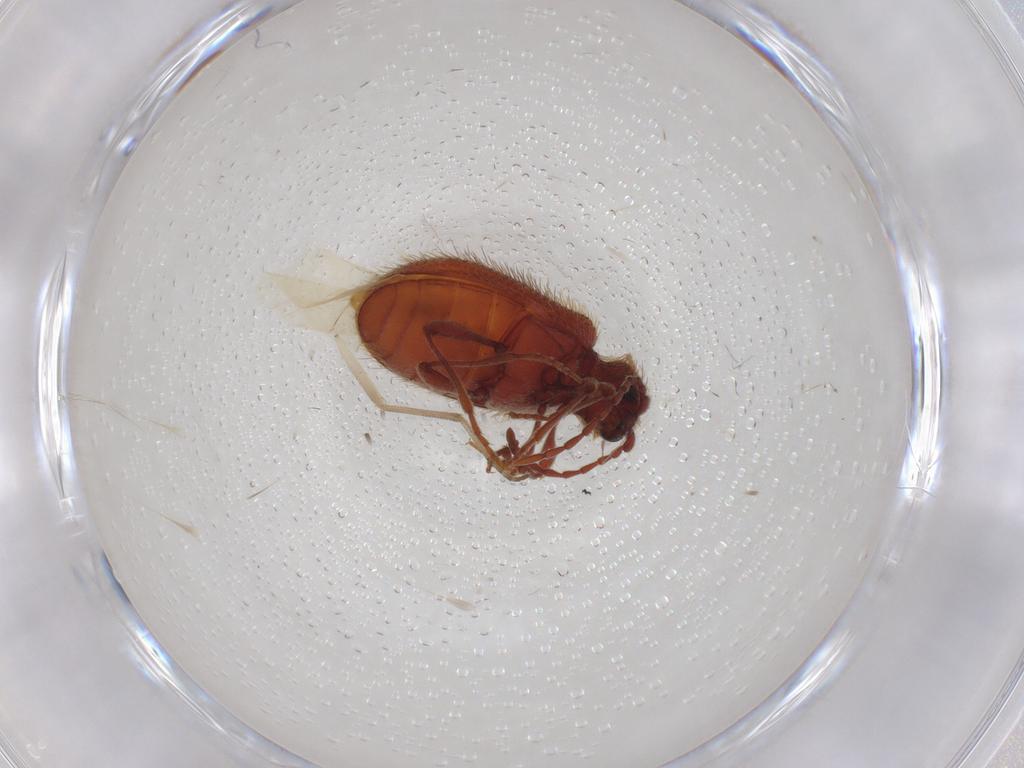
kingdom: Animalia
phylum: Arthropoda
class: Insecta
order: Coleoptera
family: Ptinidae
